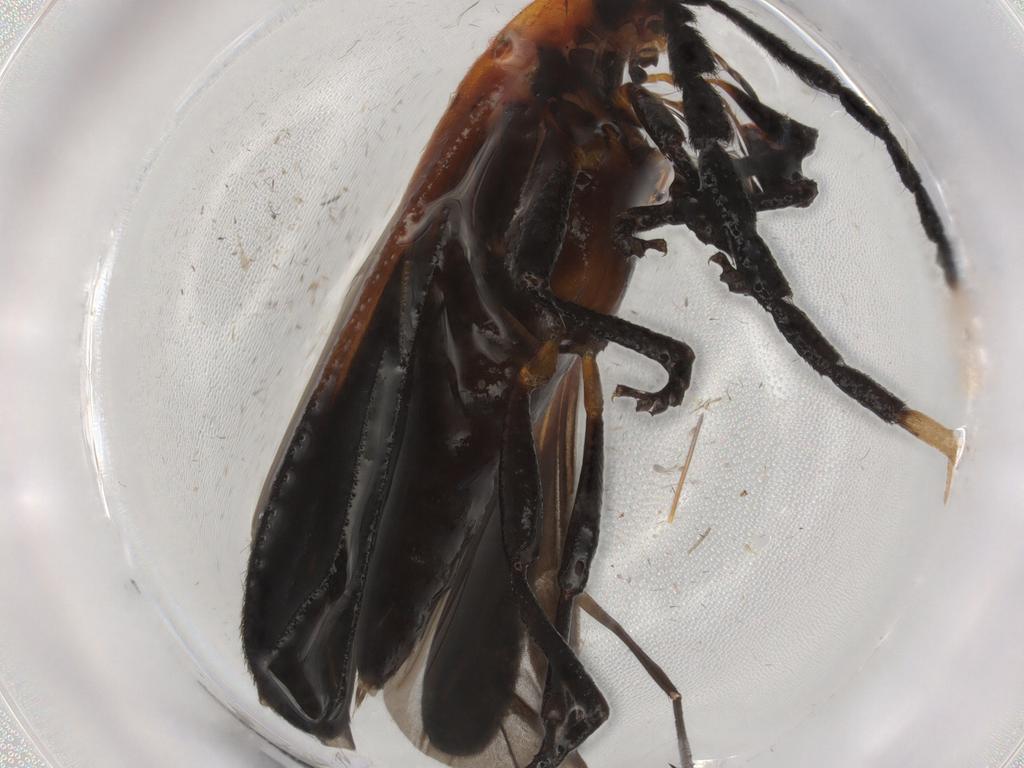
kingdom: Animalia
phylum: Arthropoda
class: Insecta
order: Coleoptera
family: Lycidae
